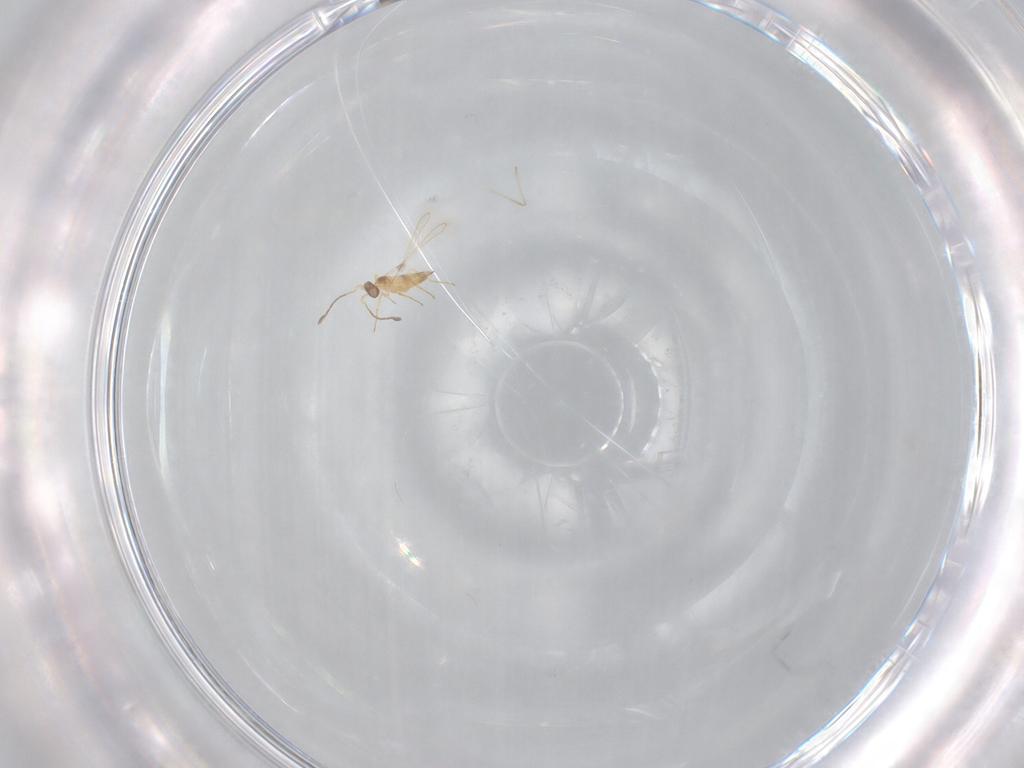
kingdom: Animalia
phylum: Arthropoda
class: Insecta
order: Hymenoptera
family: Mymaridae
